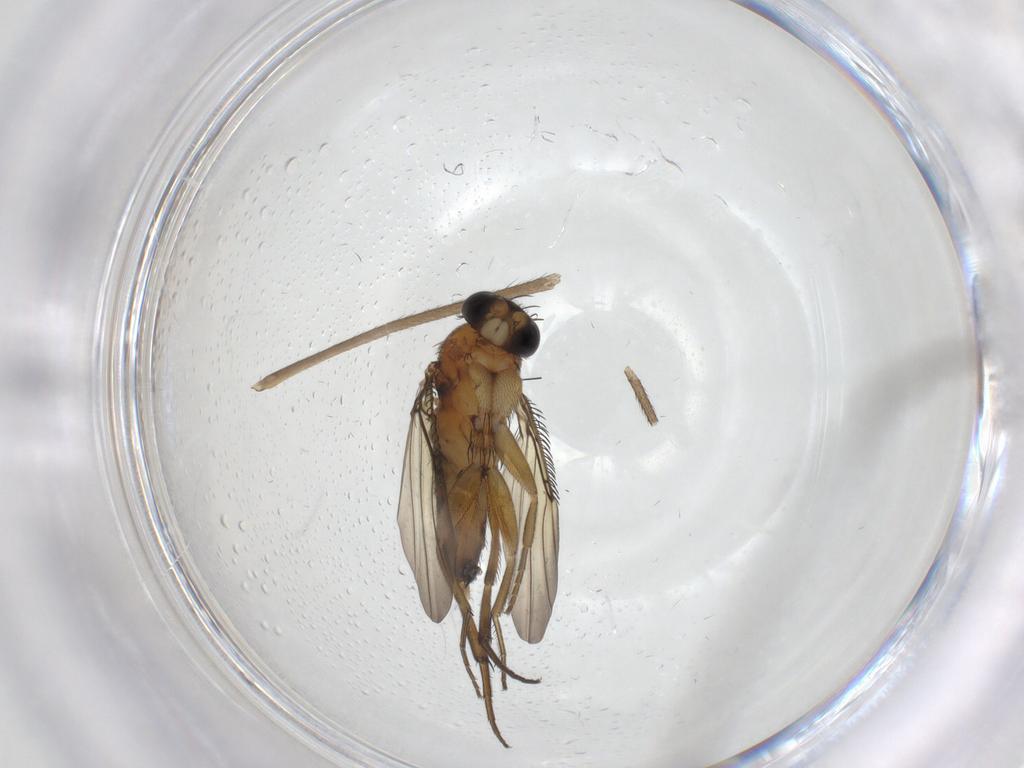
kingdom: Animalia
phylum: Arthropoda
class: Insecta
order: Diptera
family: Phoridae
